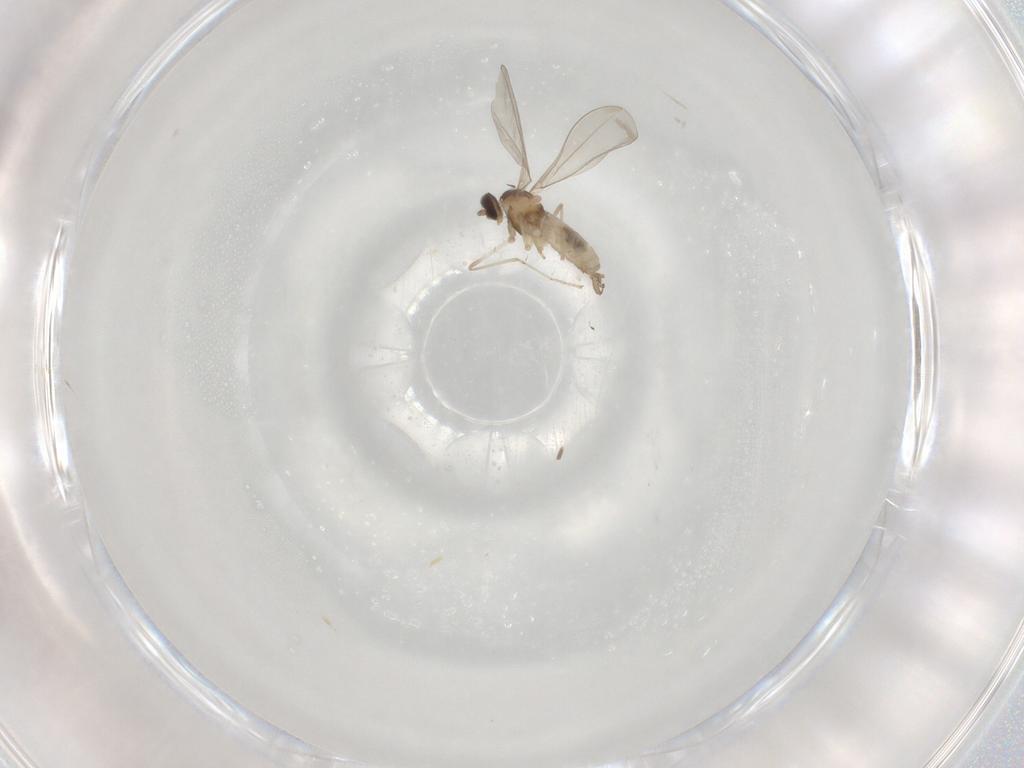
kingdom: Animalia
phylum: Arthropoda
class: Insecta
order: Diptera
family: Cecidomyiidae
